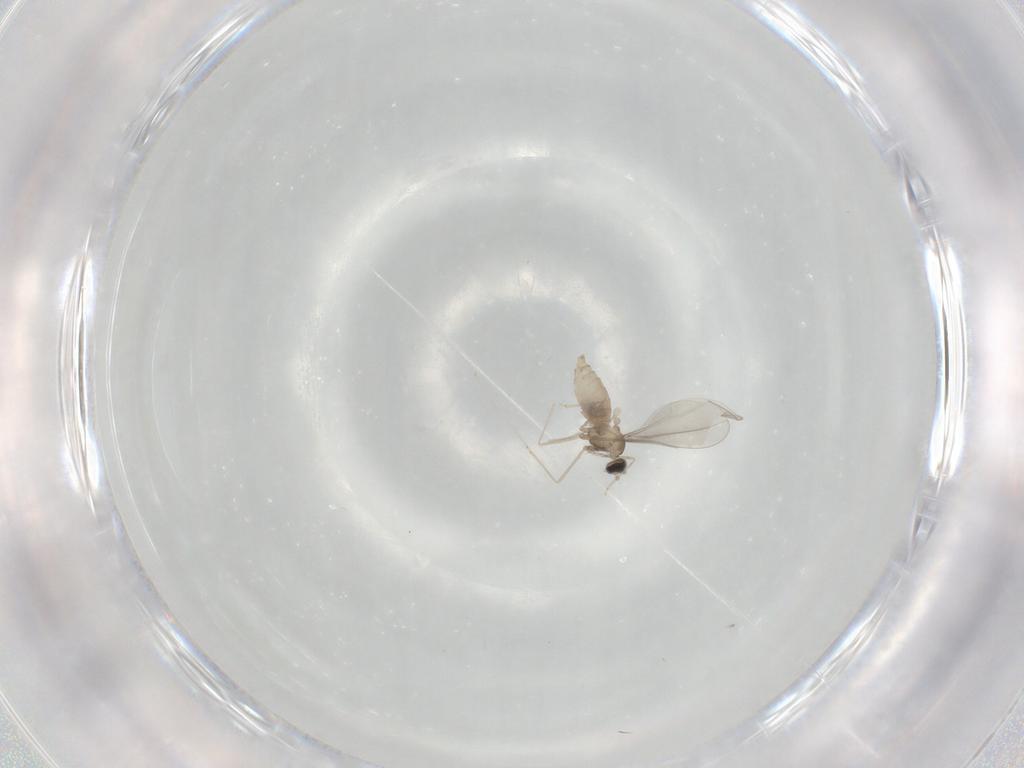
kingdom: Animalia
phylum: Arthropoda
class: Insecta
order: Diptera
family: Cecidomyiidae
